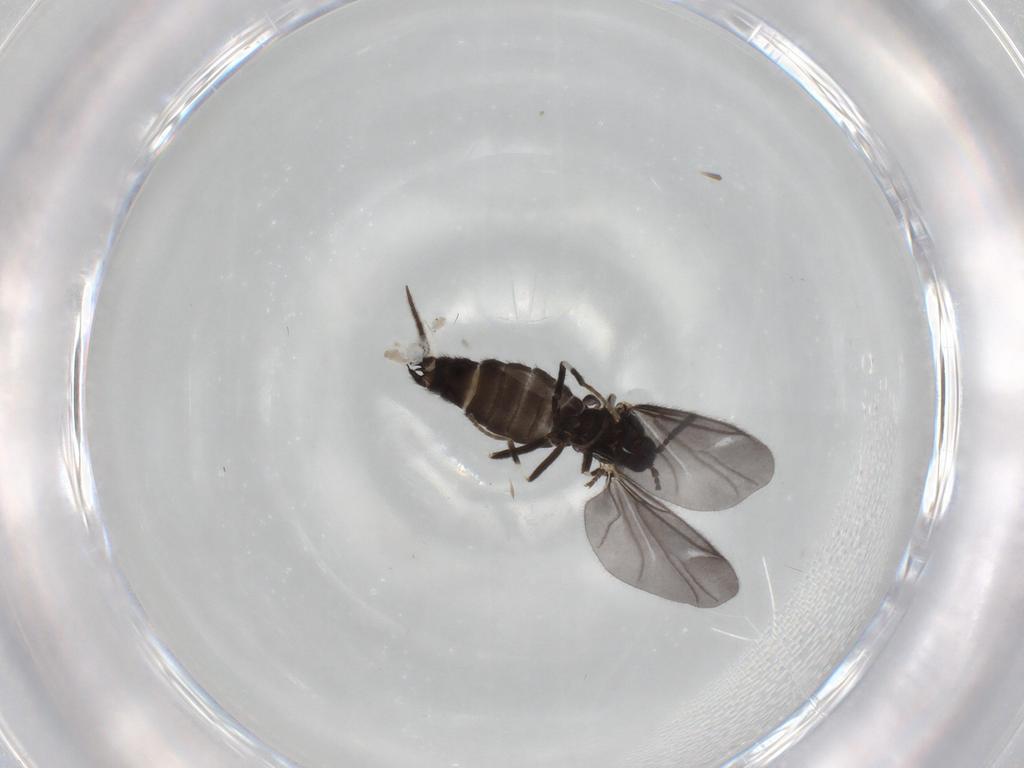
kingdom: Animalia
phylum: Arthropoda
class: Insecta
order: Diptera
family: Scatopsidae
